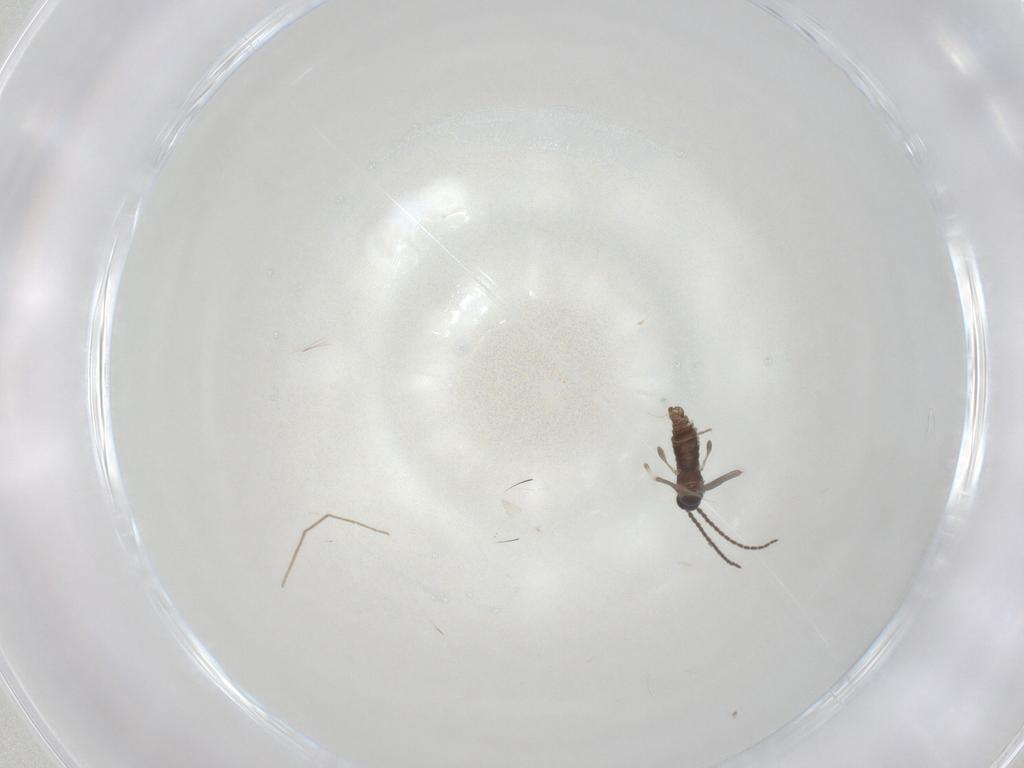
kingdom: Animalia
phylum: Arthropoda
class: Insecta
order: Diptera
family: Sciaridae
